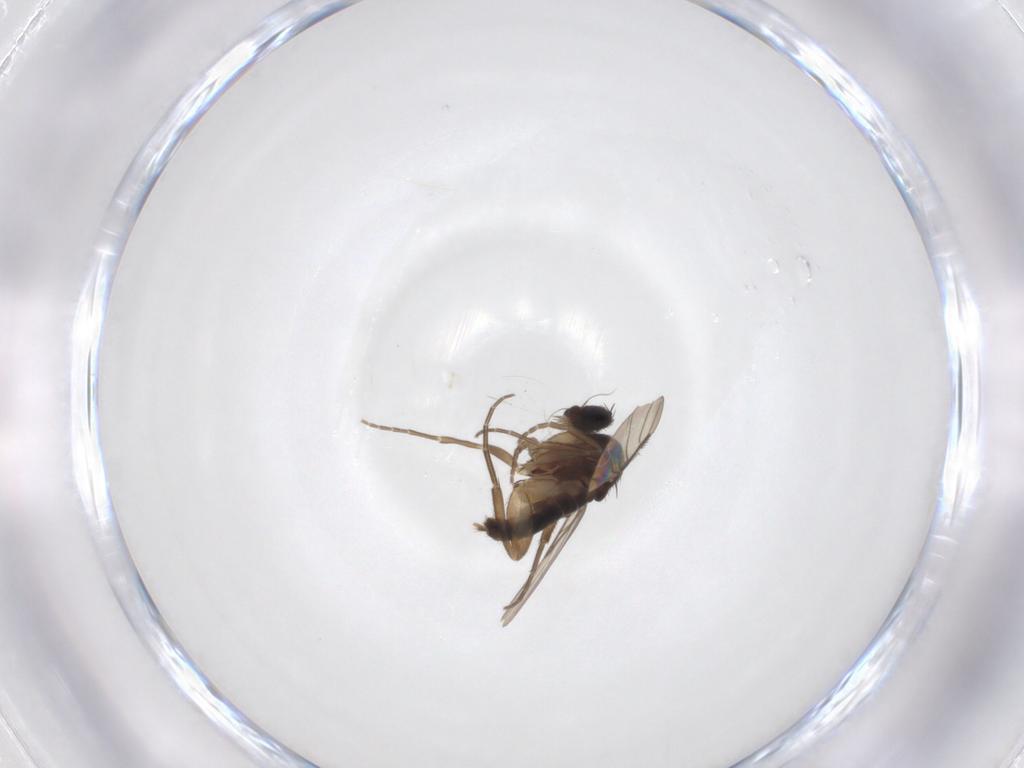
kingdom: Animalia
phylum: Arthropoda
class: Insecta
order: Diptera
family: Phoridae
